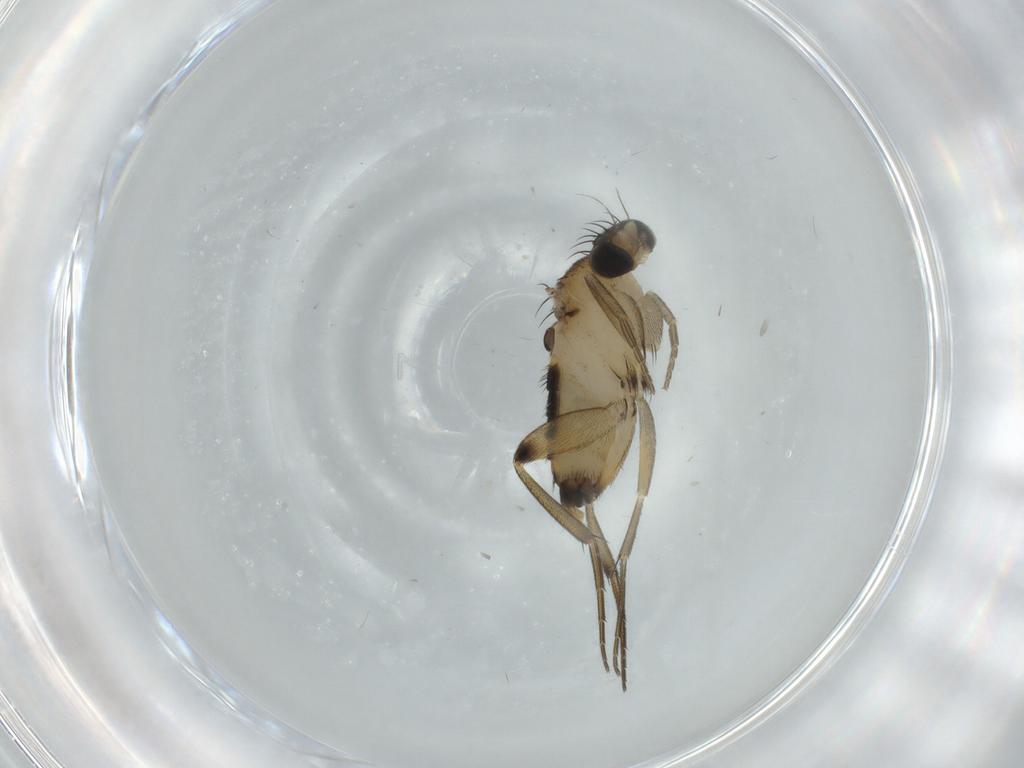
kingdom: Animalia
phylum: Arthropoda
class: Insecta
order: Diptera
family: Phoridae
